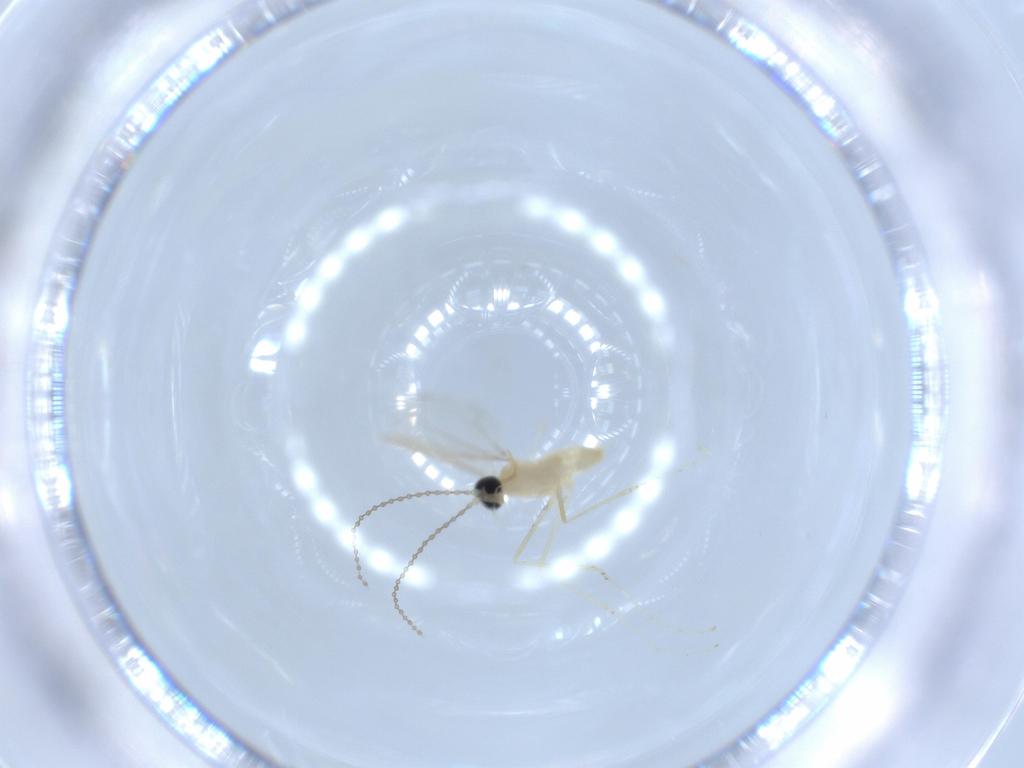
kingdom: Animalia
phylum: Arthropoda
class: Insecta
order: Diptera
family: Cecidomyiidae
